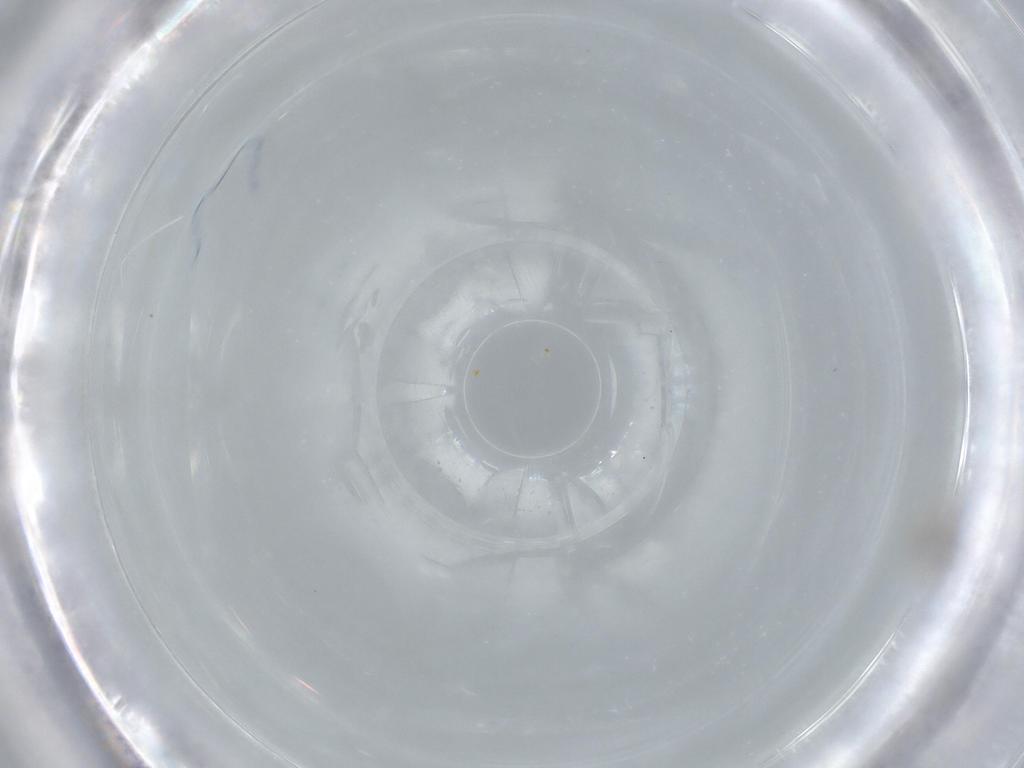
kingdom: Animalia
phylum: Arthropoda
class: Insecta
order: Diptera
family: Cecidomyiidae
